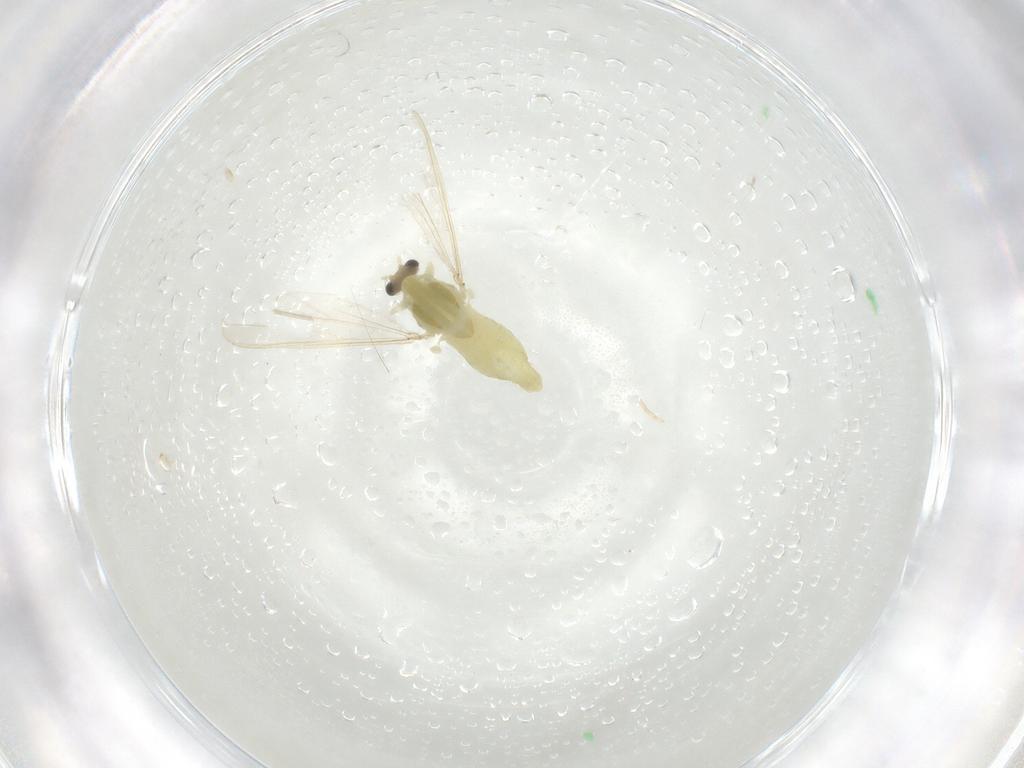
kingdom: Animalia
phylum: Arthropoda
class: Insecta
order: Diptera
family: Chironomidae
